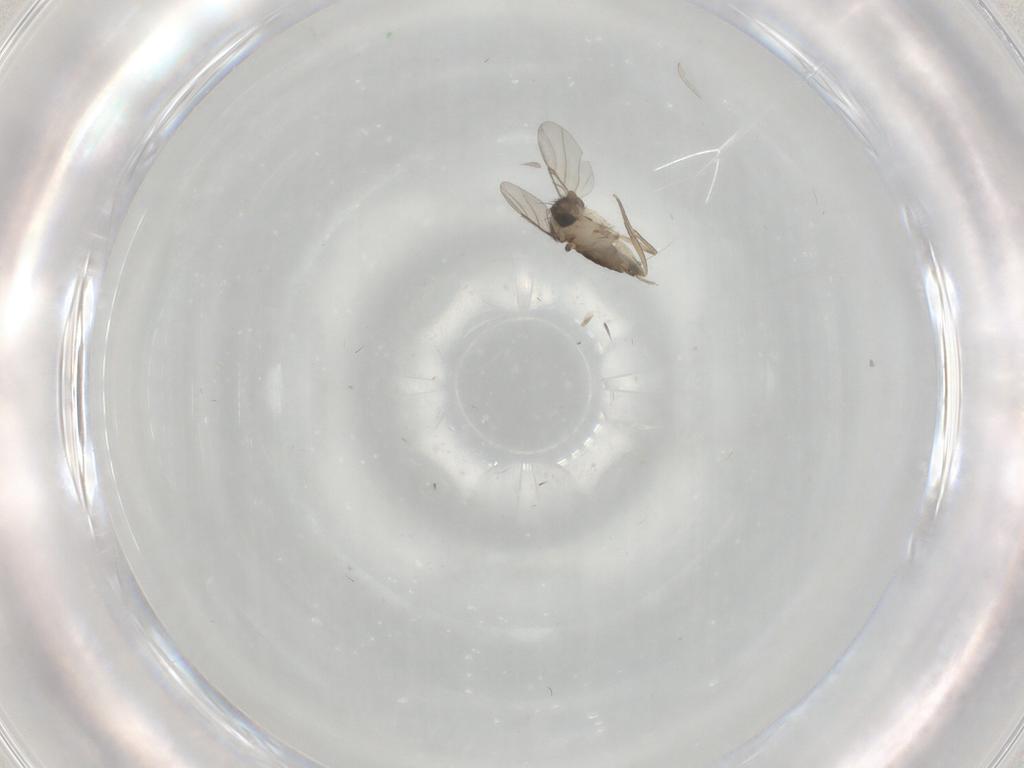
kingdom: Animalia
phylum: Arthropoda
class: Insecta
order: Diptera
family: Phoridae
